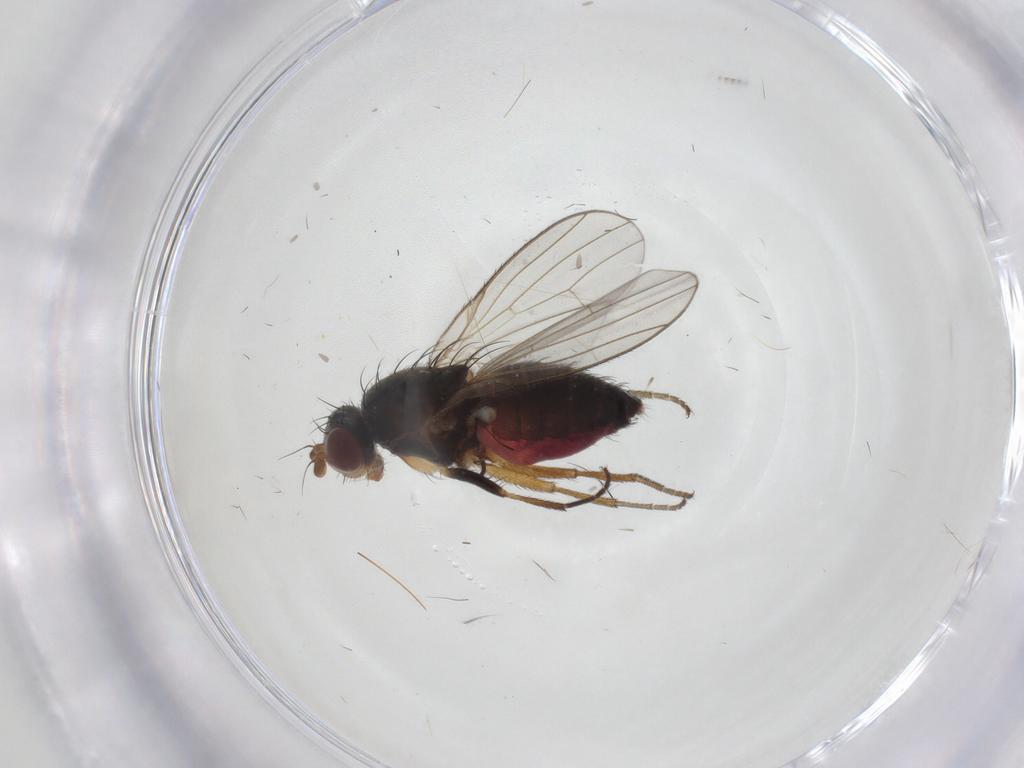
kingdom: Animalia
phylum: Arthropoda
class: Insecta
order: Diptera
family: Heleomyzidae
